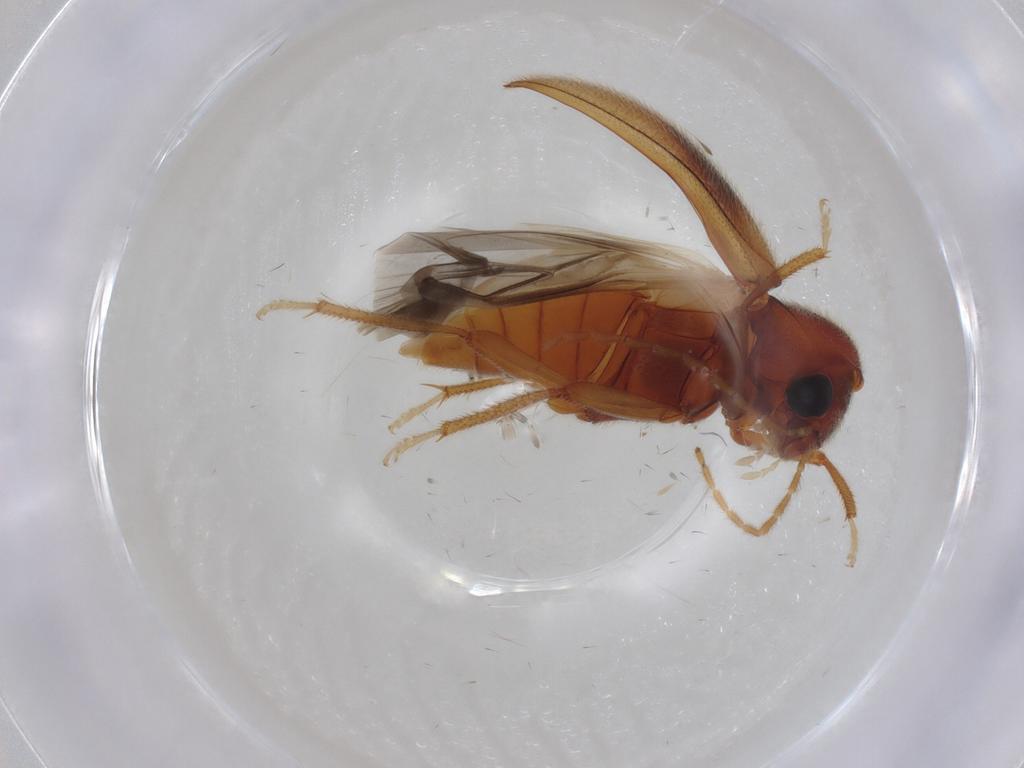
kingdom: Animalia
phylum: Arthropoda
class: Insecta
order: Coleoptera
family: Ptilodactylidae
